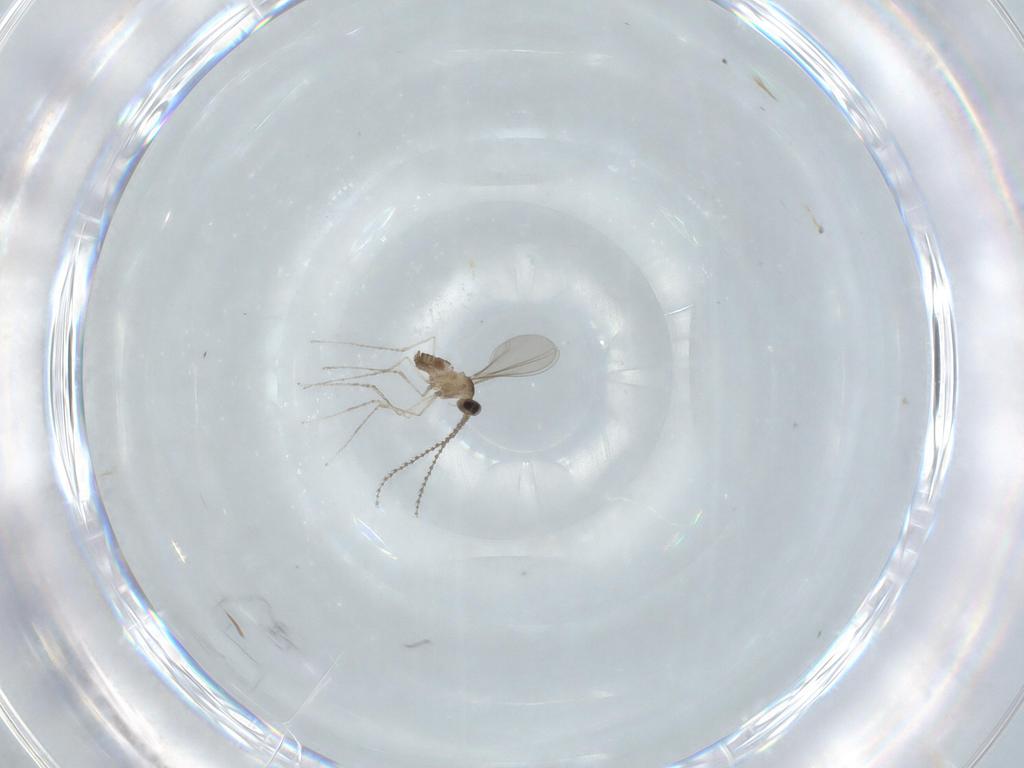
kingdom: Animalia
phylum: Arthropoda
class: Insecta
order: Diptera
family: Cecidomyiidae
